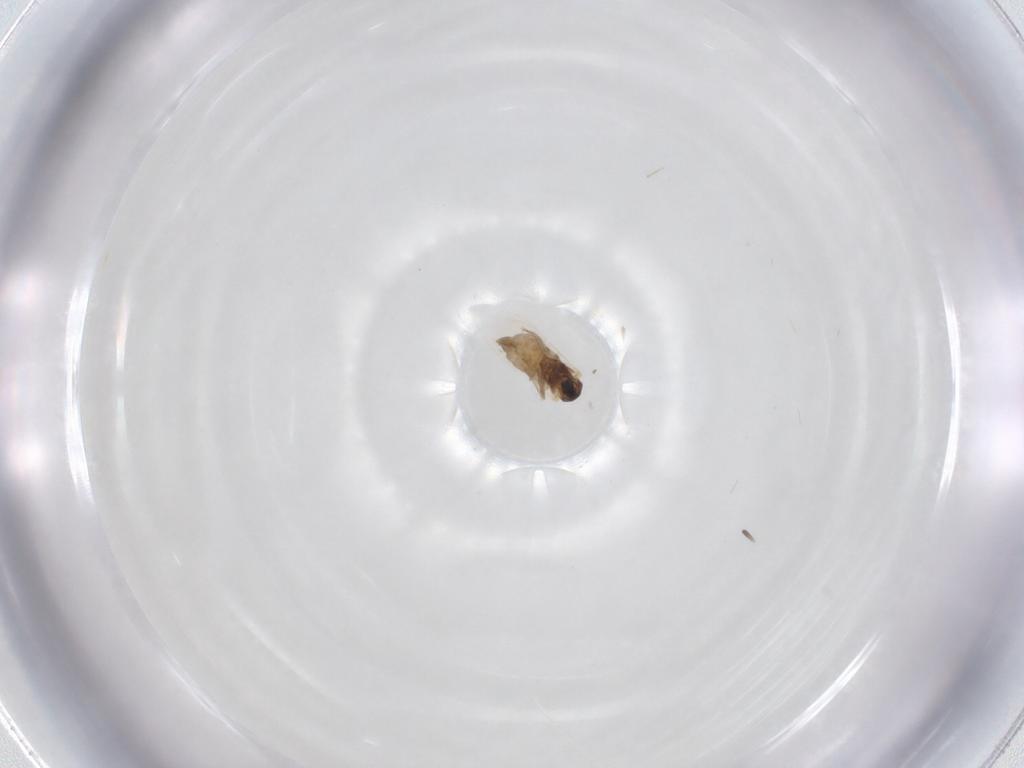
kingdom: Animalia
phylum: Arthropoda
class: Insecta
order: Diptera
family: Cecidomyiidae
